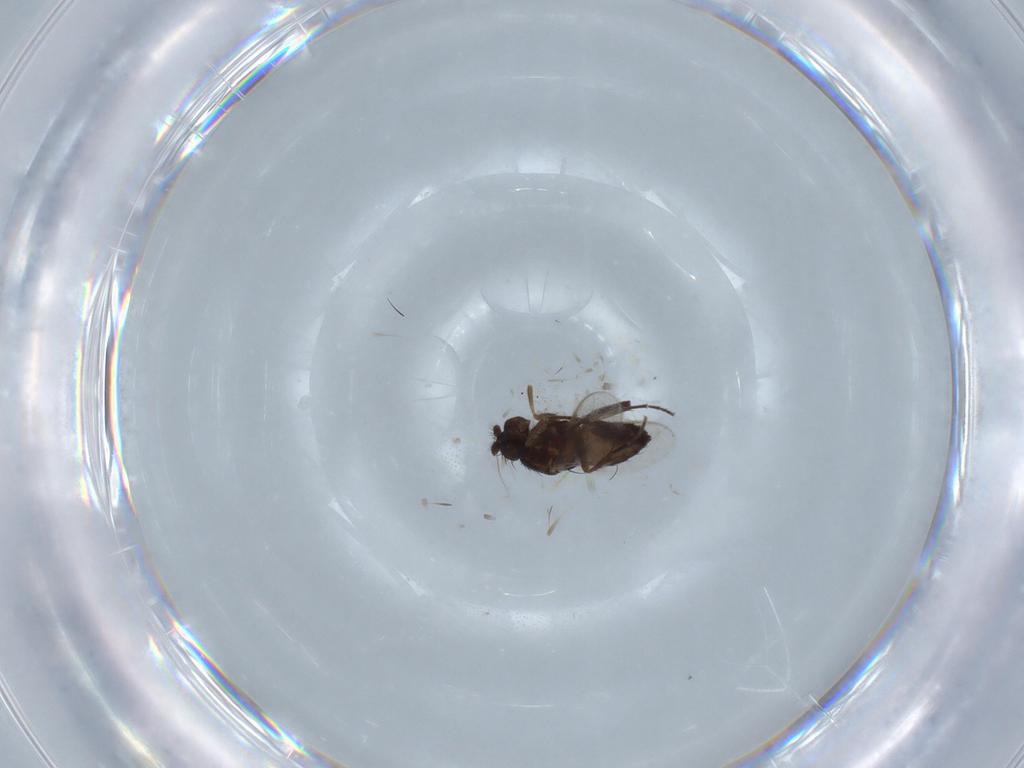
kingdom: Animalia
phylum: Arthropoda
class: Insecta
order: Diptera
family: Sphaeroceridae
